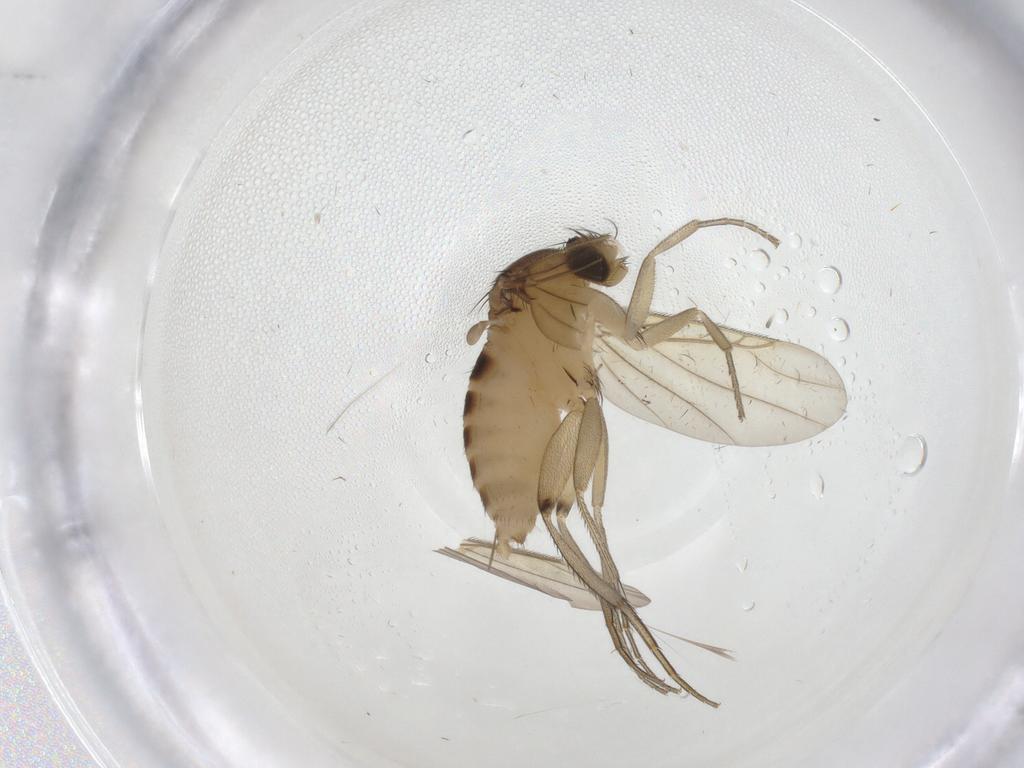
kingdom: Animalia
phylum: Arthropoda
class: Insecta
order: Diptera
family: Phoridae
